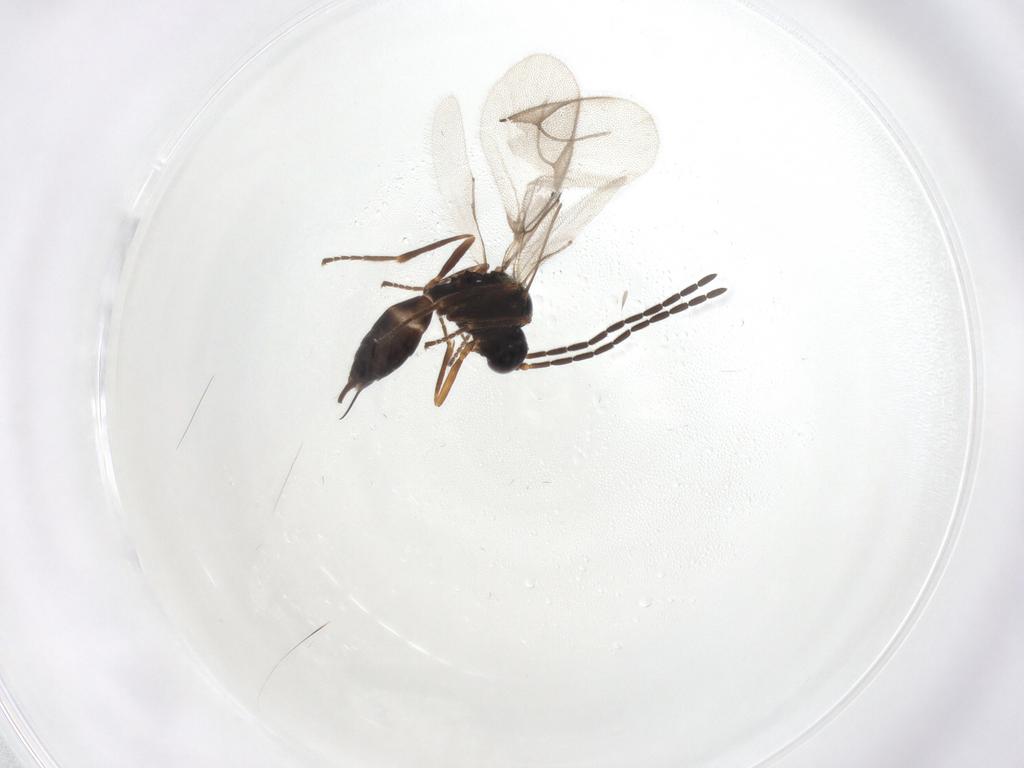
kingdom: Animalia
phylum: Arthropoda
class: Insecta
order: Hymenoptera
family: Braconidae
